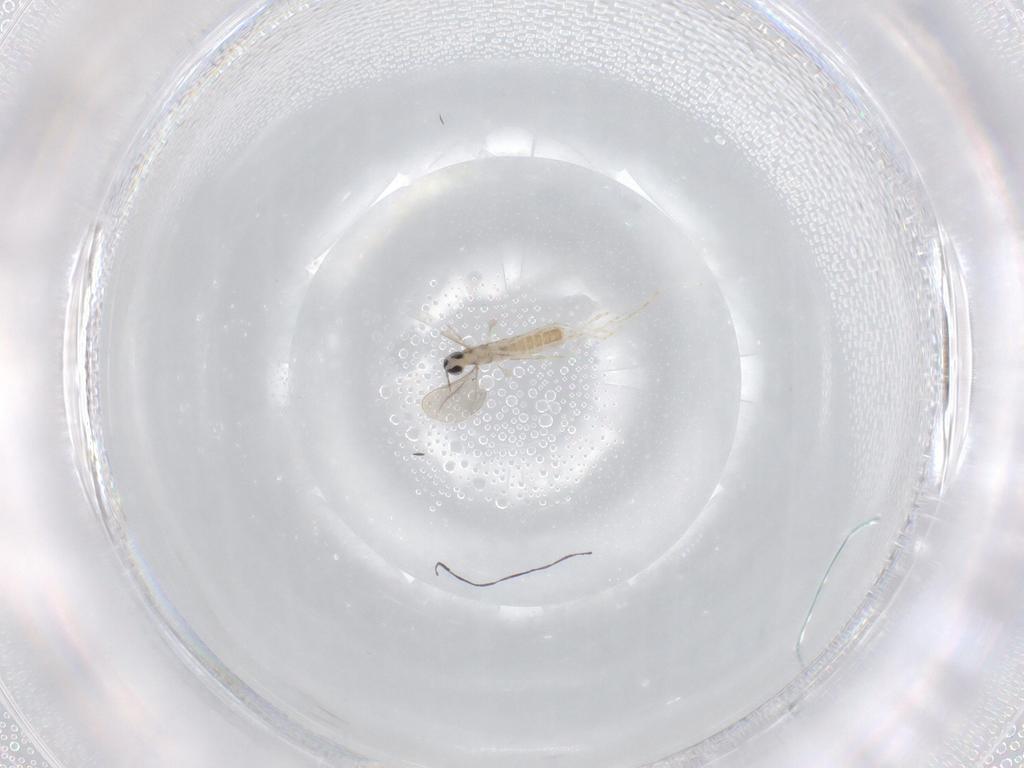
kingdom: Animalia
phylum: Arthropoda
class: Insecta
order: Diptera
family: Cecidomyiidae
